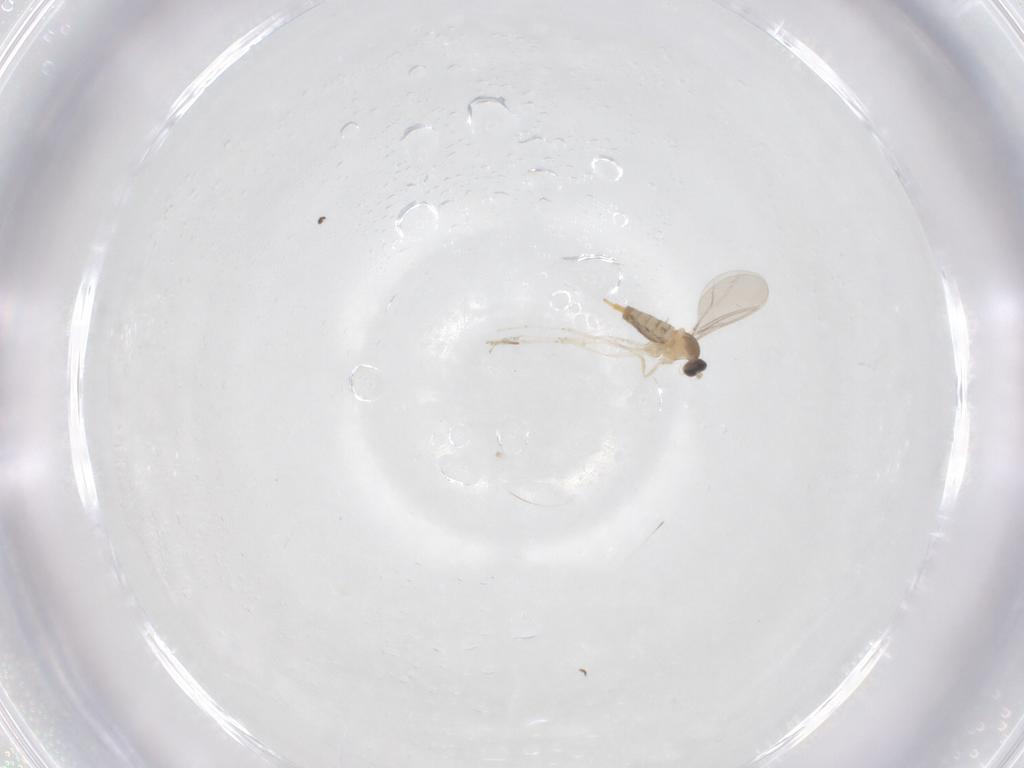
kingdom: Animalia
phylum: Arthropoda
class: Insecta
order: Diptera
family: Cecidomyiidae
